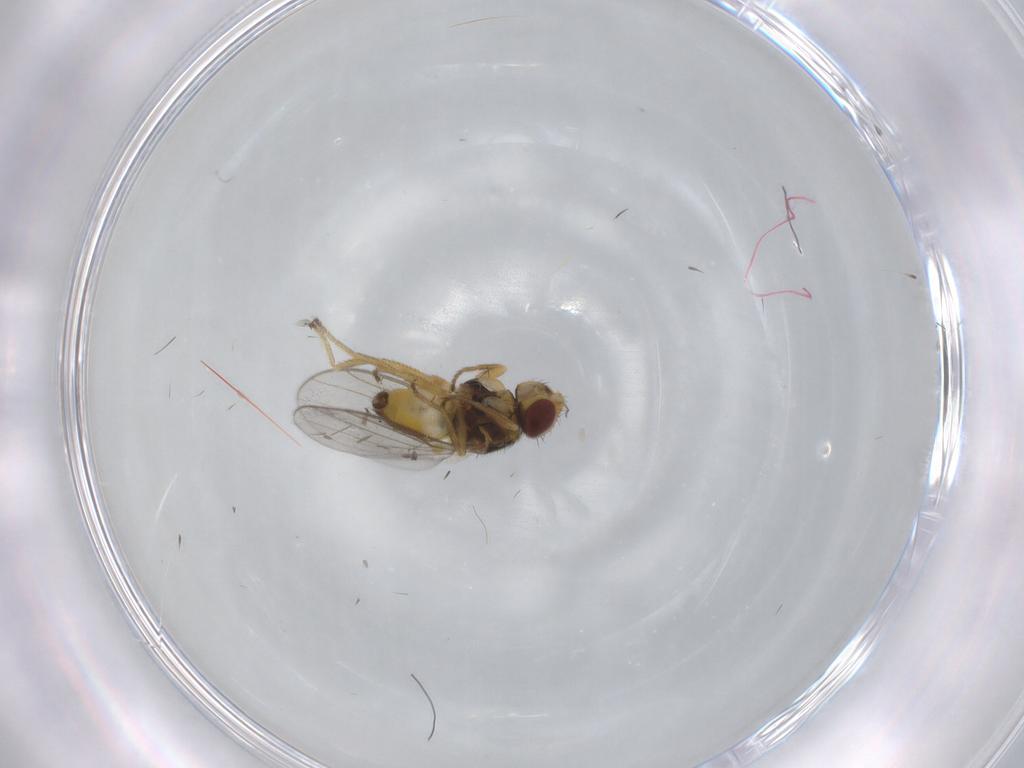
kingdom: Animalia
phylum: Arthropoda
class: Insecta
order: Diptera
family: Chloropidae
